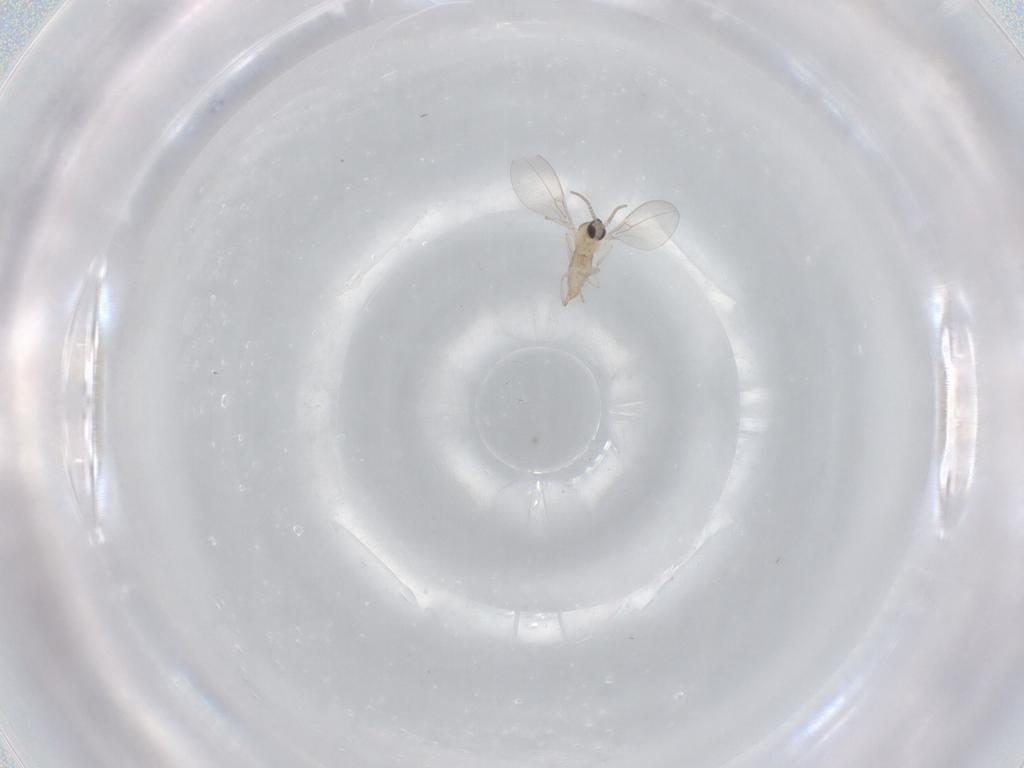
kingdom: Animalia
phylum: Arthropoda
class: Insecta
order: Diptera
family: Cecidomyiidae
